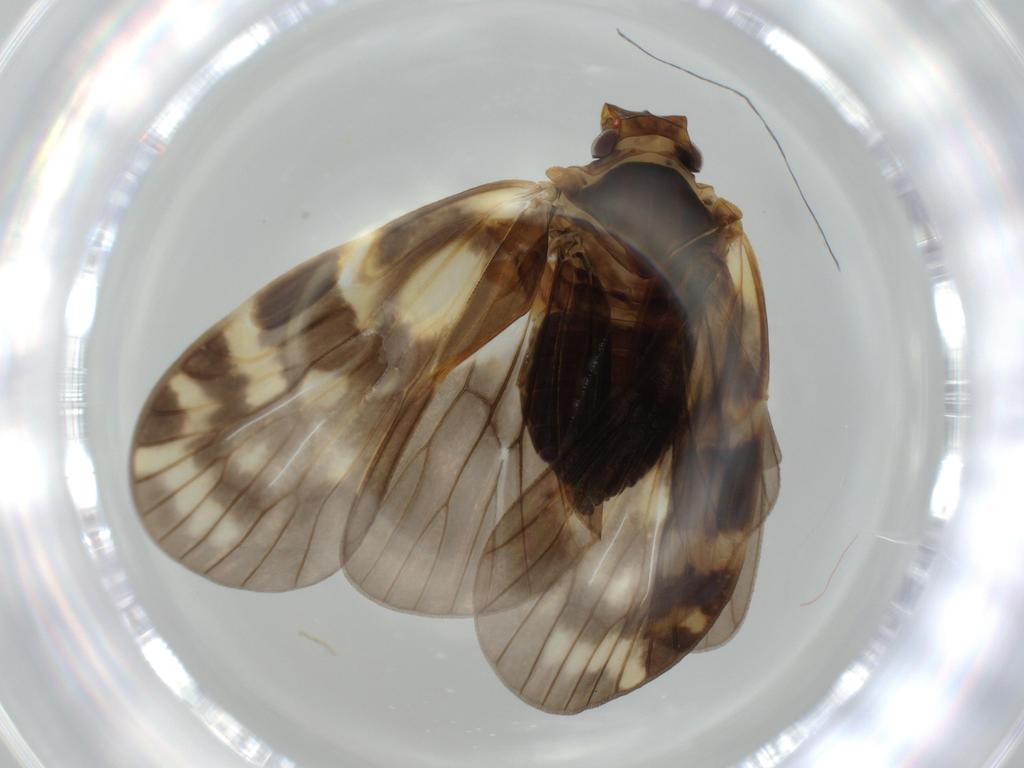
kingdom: Animalia
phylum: Arthropoda
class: Insecta
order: Hemiptera
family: Cixiidae
